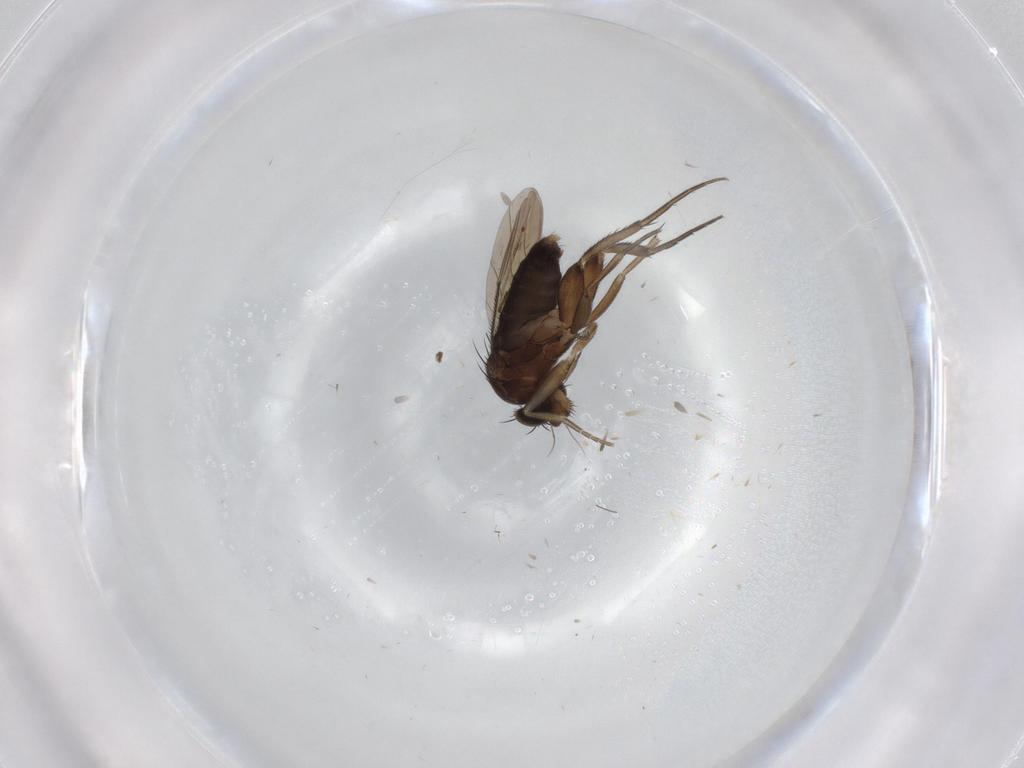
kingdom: Animalia
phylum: Arthropoda
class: Insecta
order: Diptera
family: Phoridae
